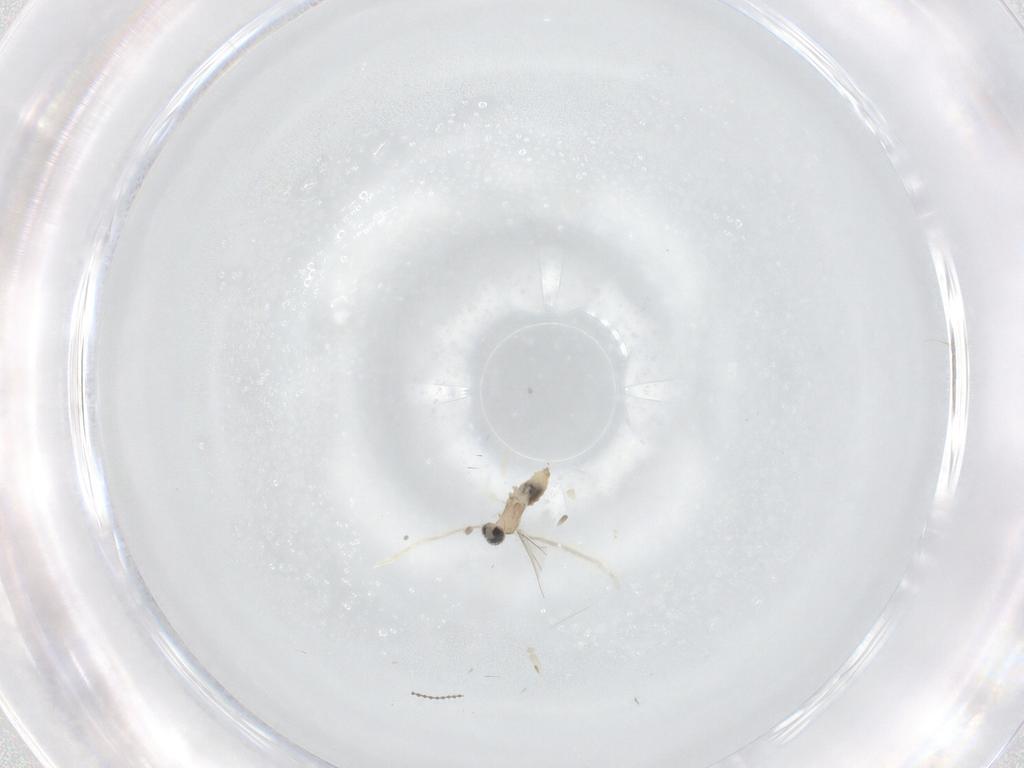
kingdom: Animalia
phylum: Arthropoda
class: Insecta
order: Diptera
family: Cecidomyiidae
